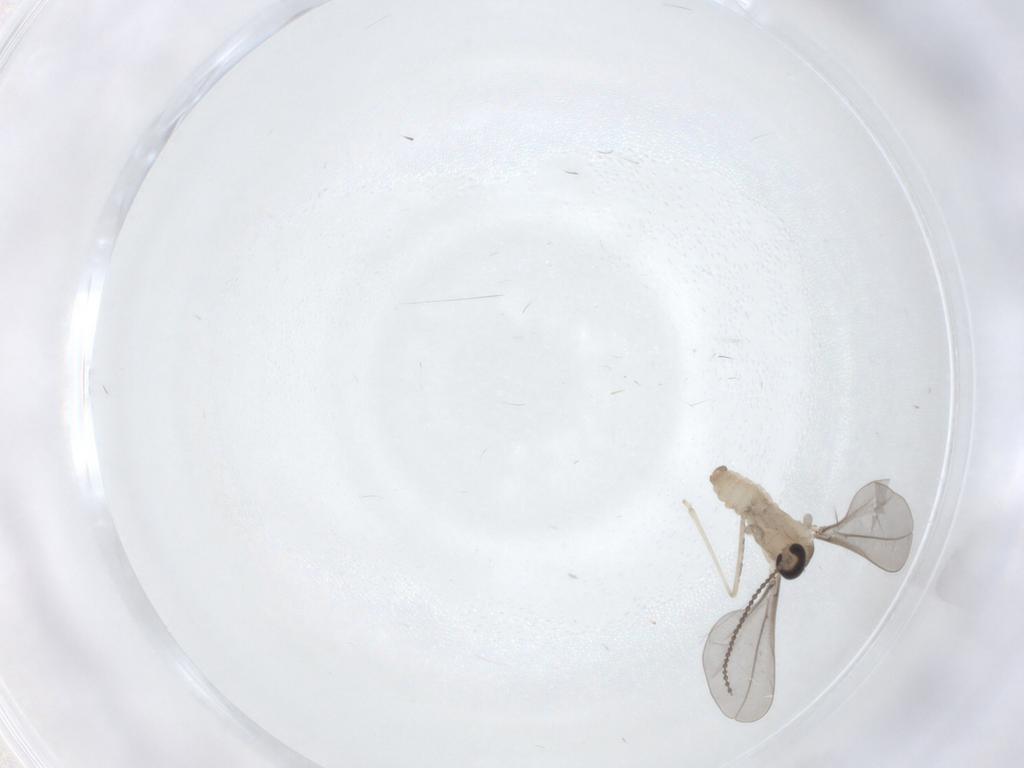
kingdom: Animalia
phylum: Arthropoda
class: Insecta
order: Diptera
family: Cecidomyiidae
